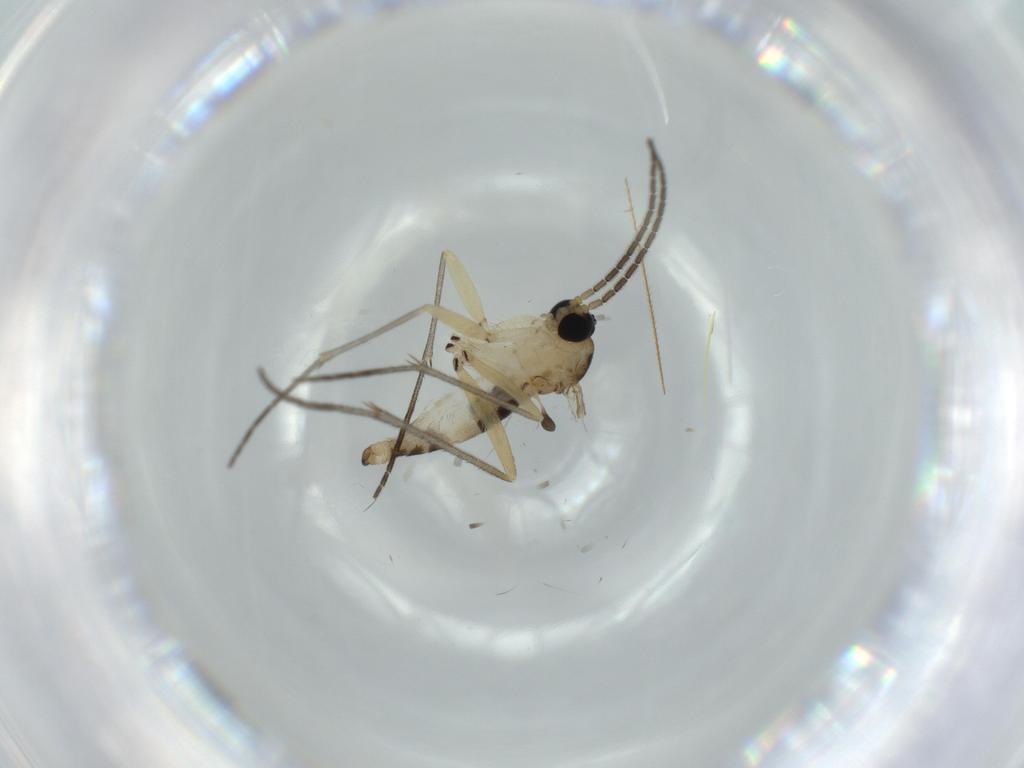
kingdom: Animalia
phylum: Arthropoda
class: Insecta
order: Diptera
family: Sciaridae
